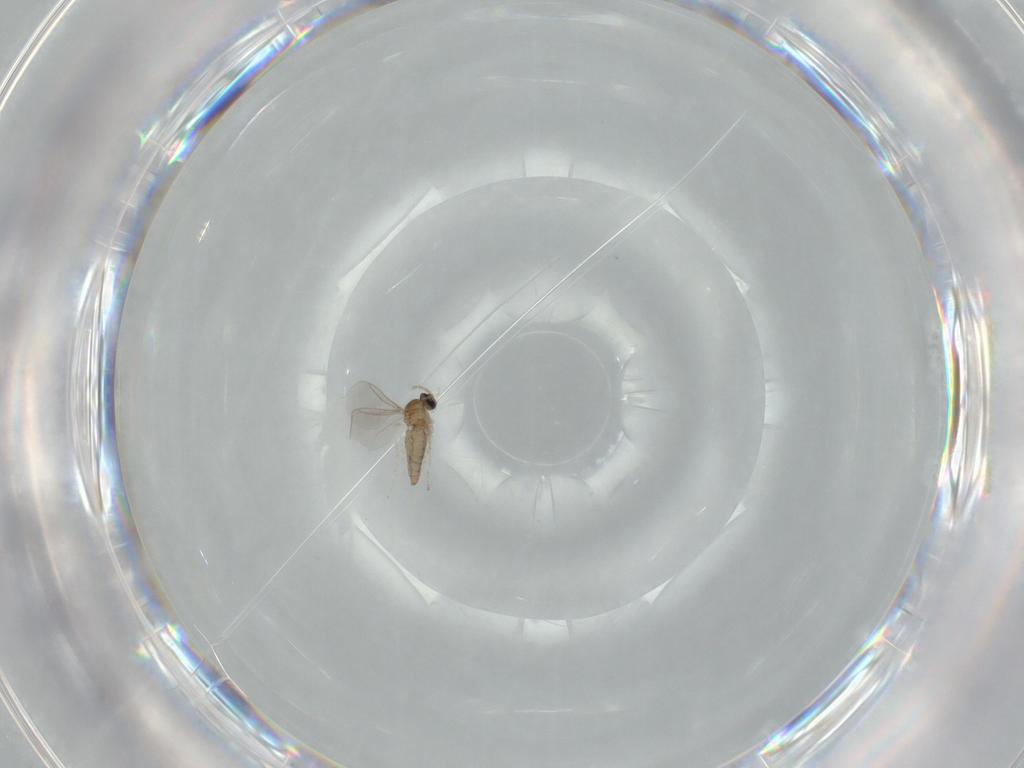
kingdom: Animalia
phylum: Arthropoda
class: Insecta
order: Diptera
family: Cecidomyiidae
